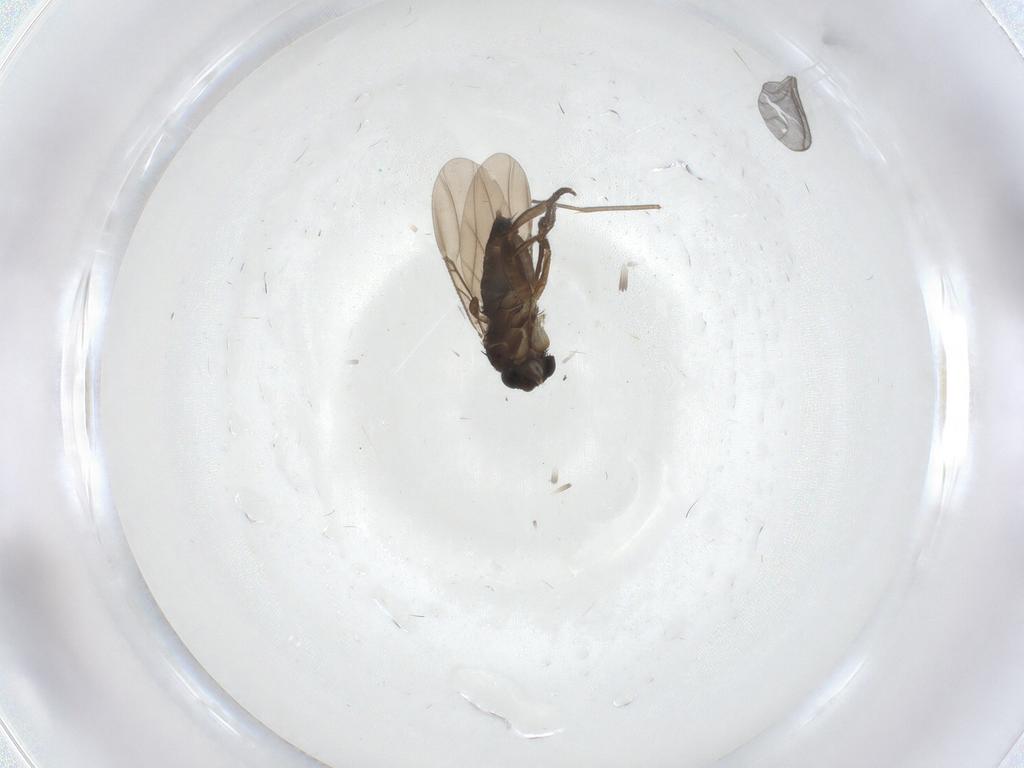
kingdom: Animalia
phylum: Arthropoda
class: Insecta
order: Diptera
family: Phoridae
